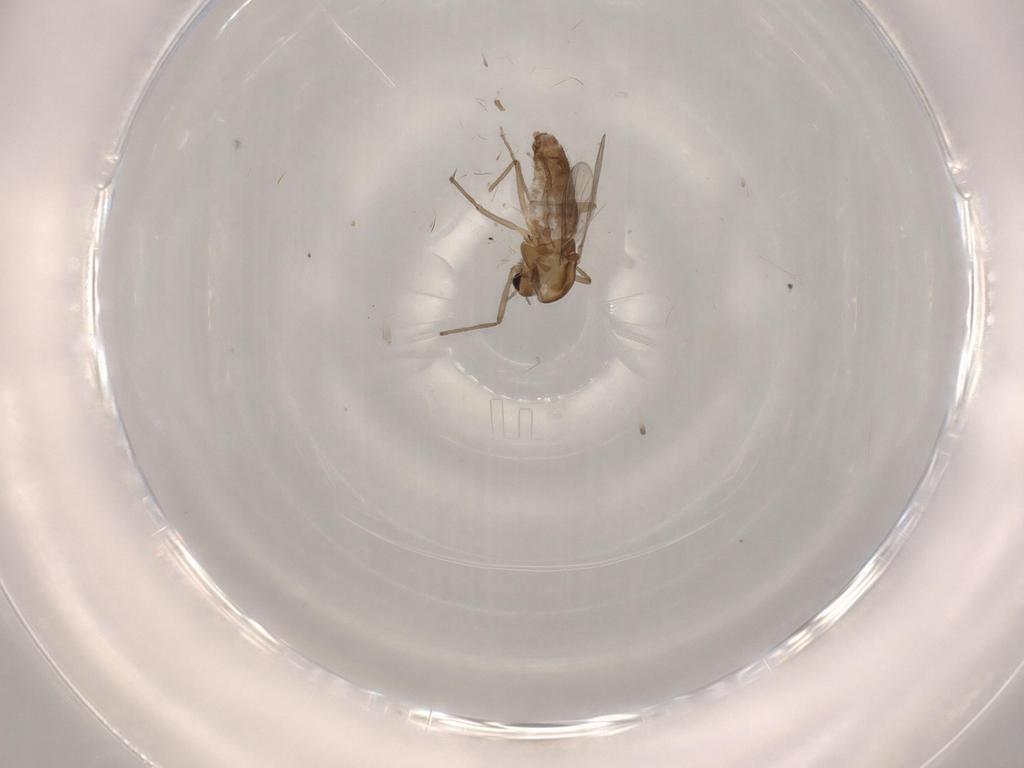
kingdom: Animalia
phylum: Arthropoda
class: Insecta
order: Diptera
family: Chironomidae
